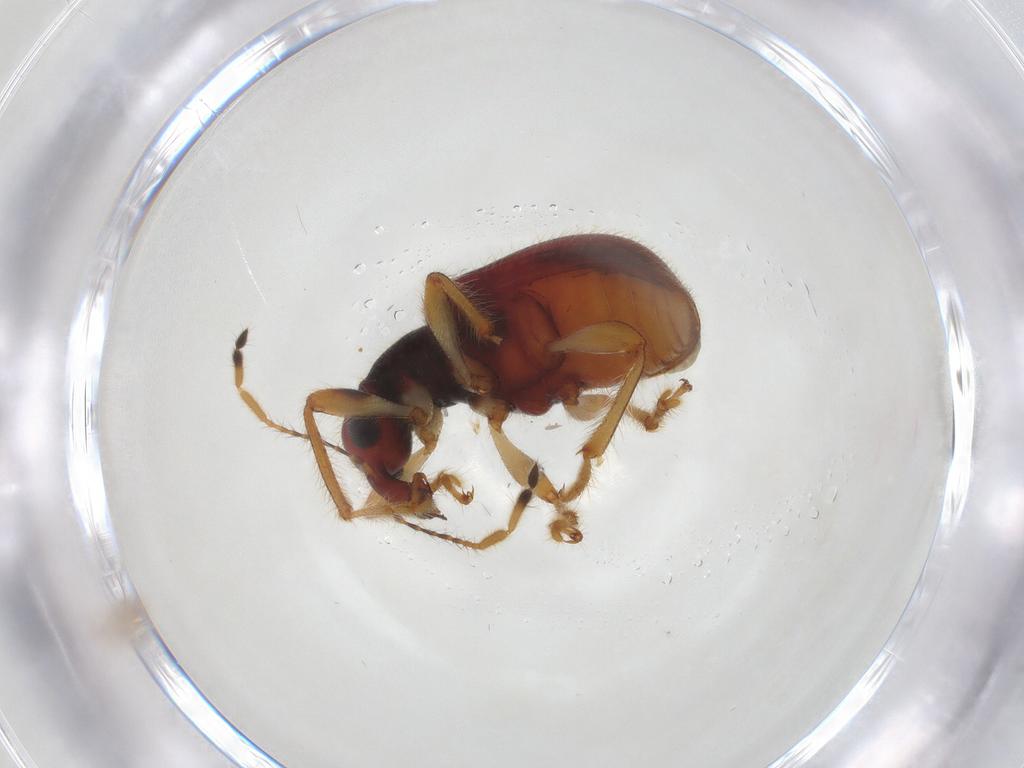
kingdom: Animalia
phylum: Arthropoda
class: Insecta
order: Coleoptera
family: Attelabidae
